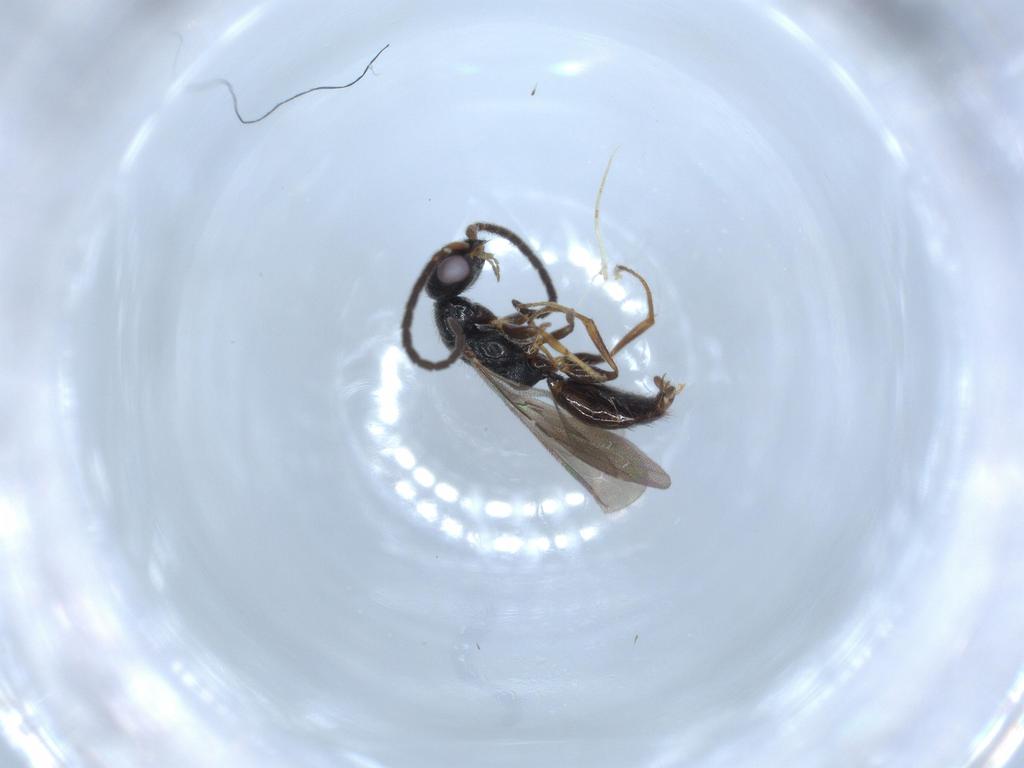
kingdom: Animalia
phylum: Arthropoda
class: Insecta
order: Hymenoptera
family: Bethylidae
